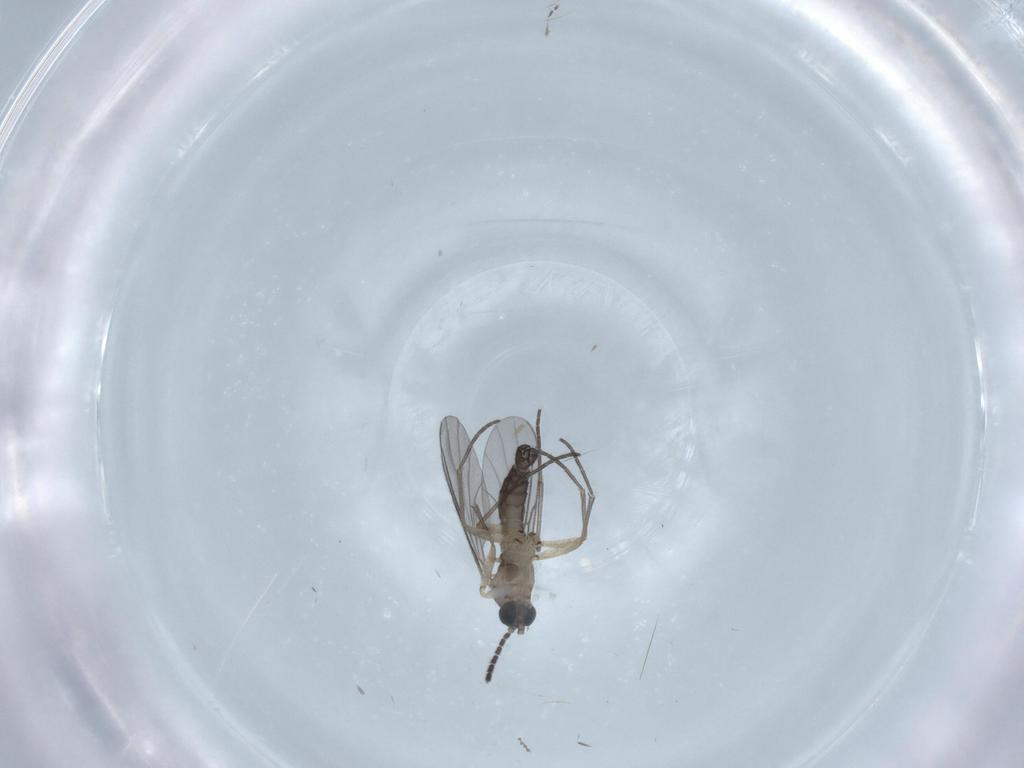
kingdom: Animalia
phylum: Arthropoda
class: Insecta
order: Diptera
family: Sciaridae
